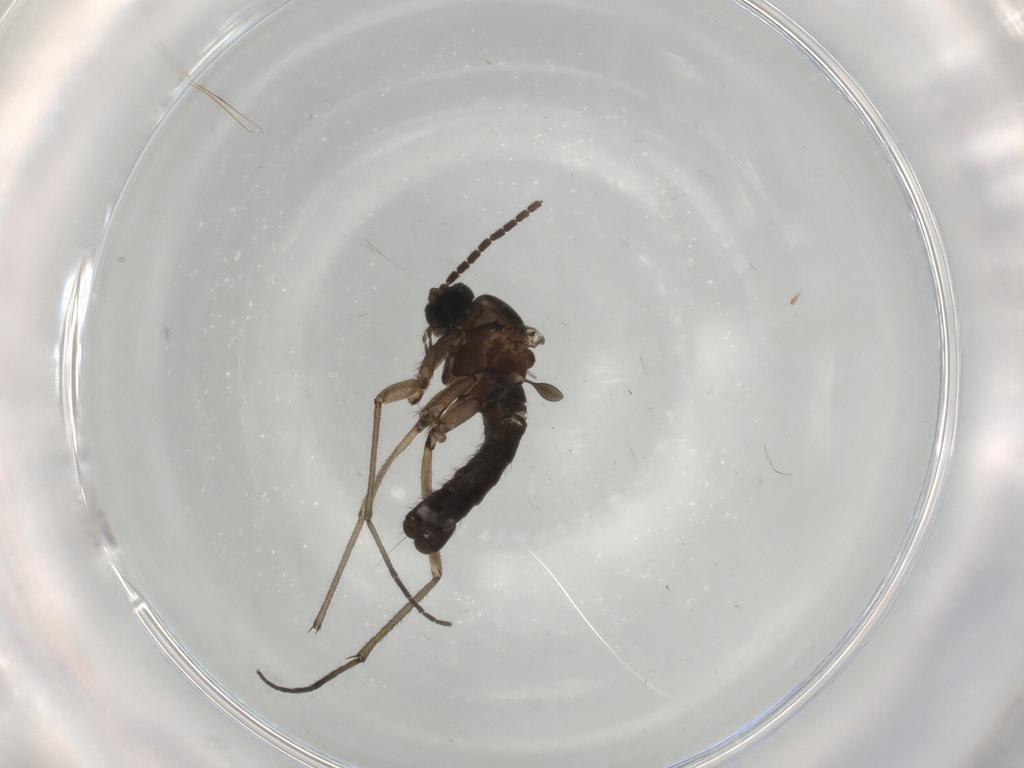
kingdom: Animalia
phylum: Arthropoda
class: Insecta
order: Diptera
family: Sciaridae
